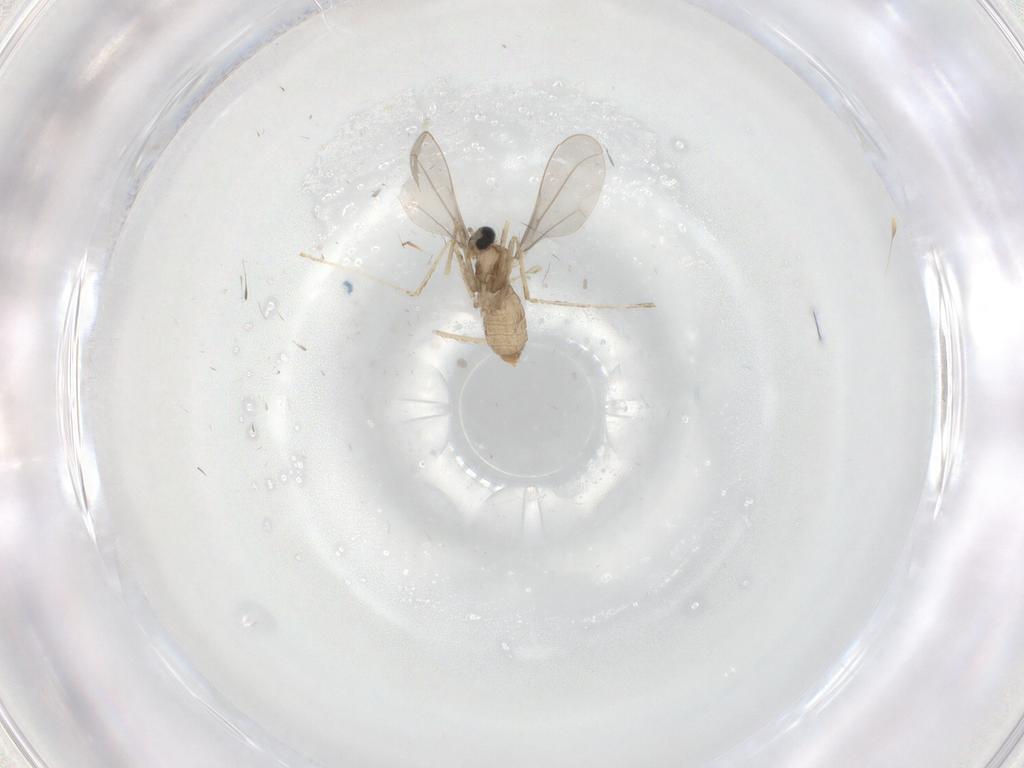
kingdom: Animalia
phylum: Arthropoda
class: Insecta
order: Diptera
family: Cecidomyiidae
